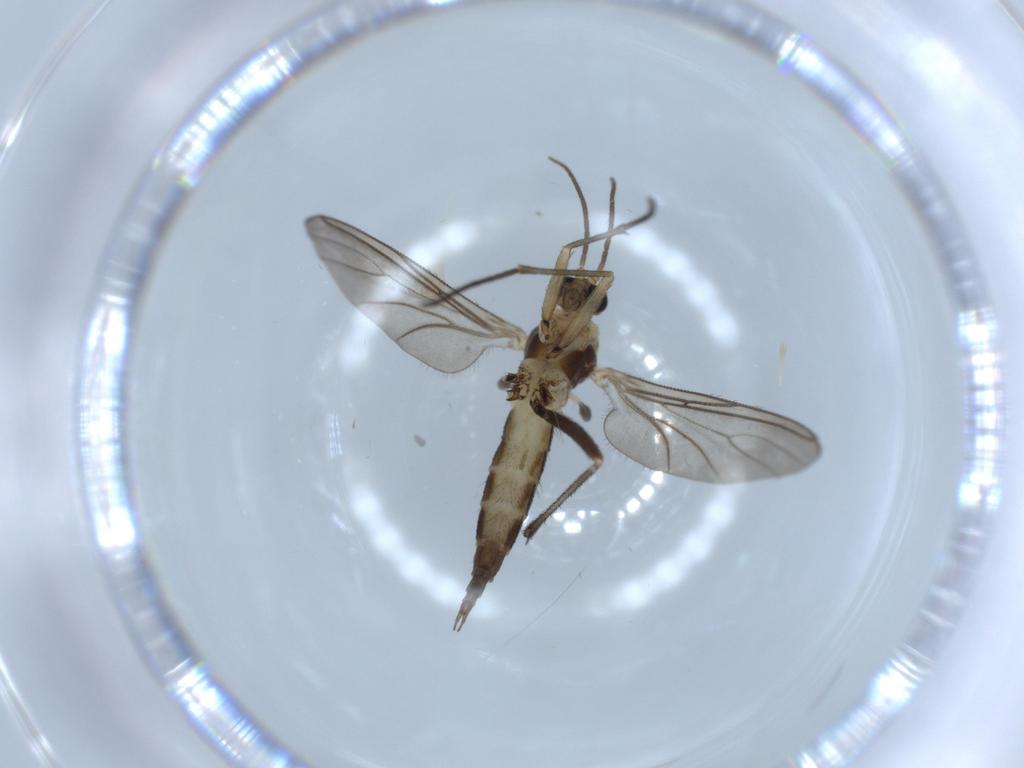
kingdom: Animalia
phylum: Arthropoda
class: Insecta
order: Diptera
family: Sciaridae
